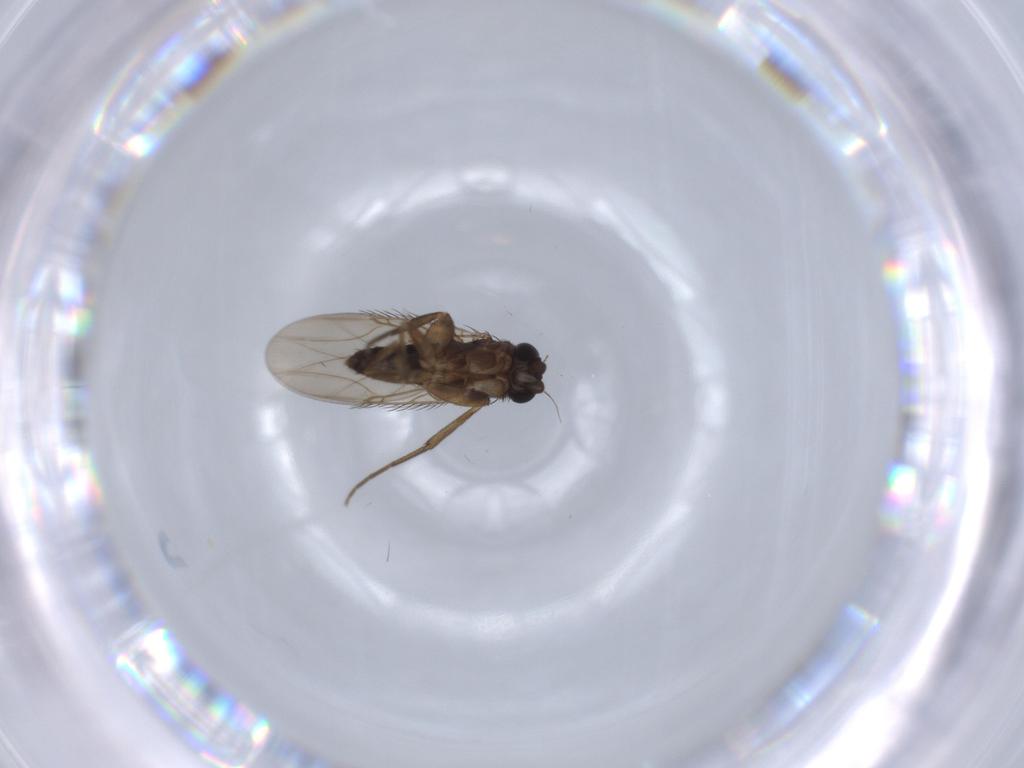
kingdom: Animalia
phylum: Arthropoda
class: Insecta
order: Diptera
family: Phoridae
